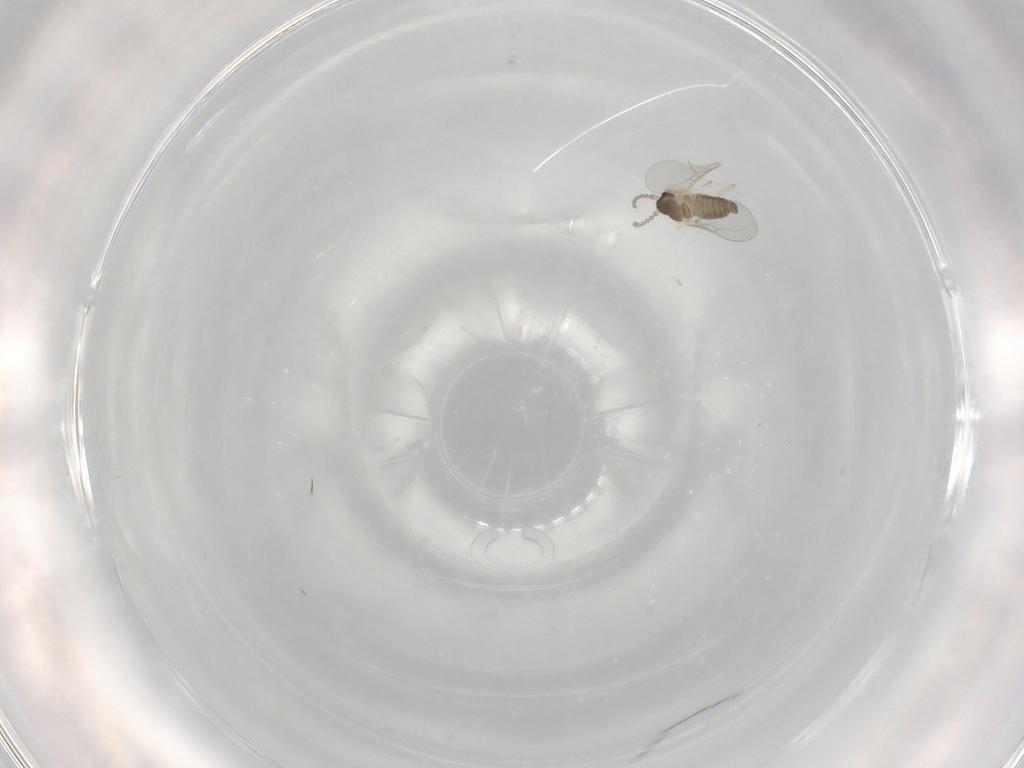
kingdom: Animalia
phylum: Arthropoda
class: Insecta
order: Diptera
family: Cecidomyiidae
